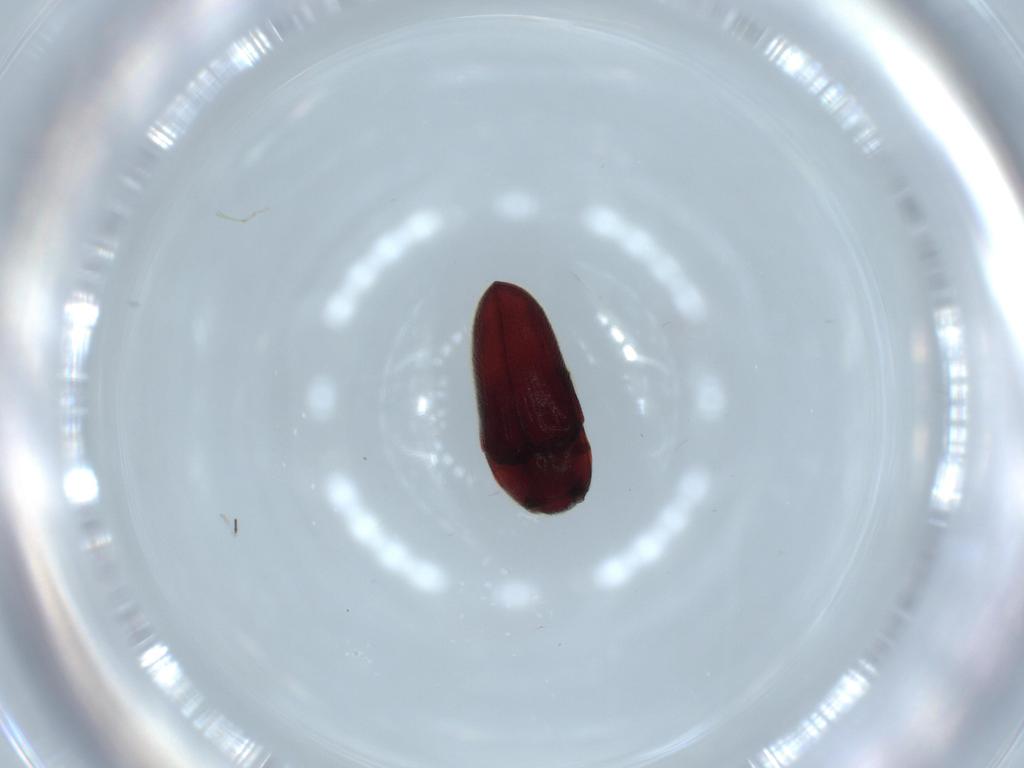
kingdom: Animalia
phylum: Arthropoda
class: Insecta
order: Coleoptera
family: Throscidae
